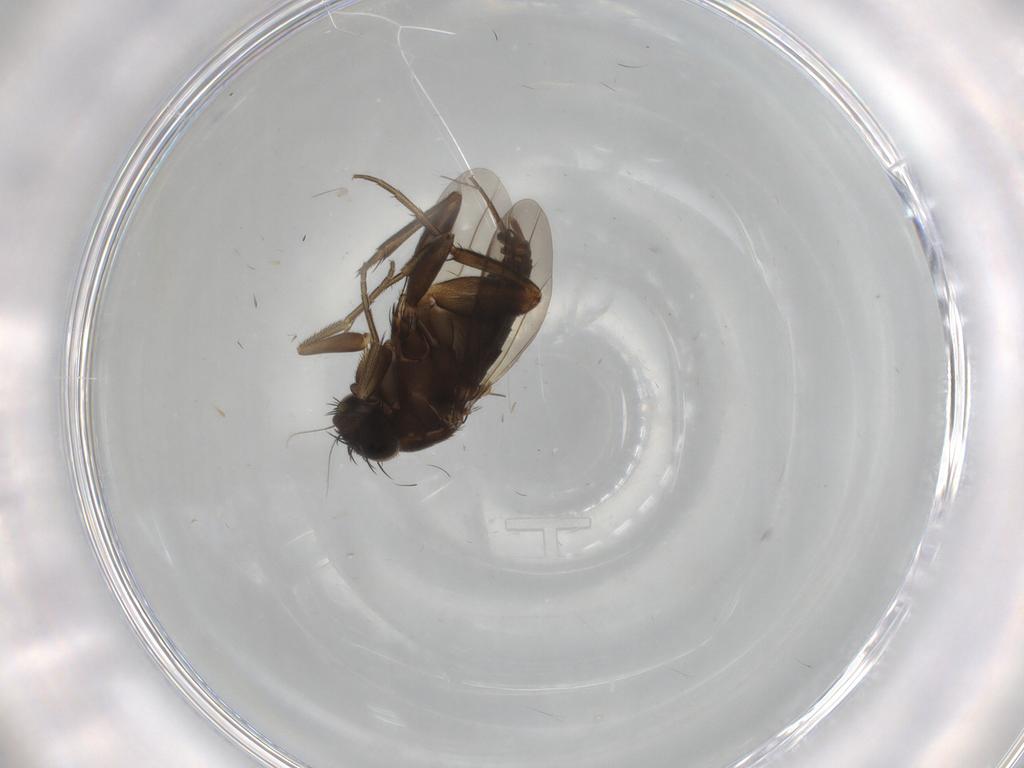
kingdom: Animalia
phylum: Arthropoda
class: Insecta
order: Diptera
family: Phoridae
